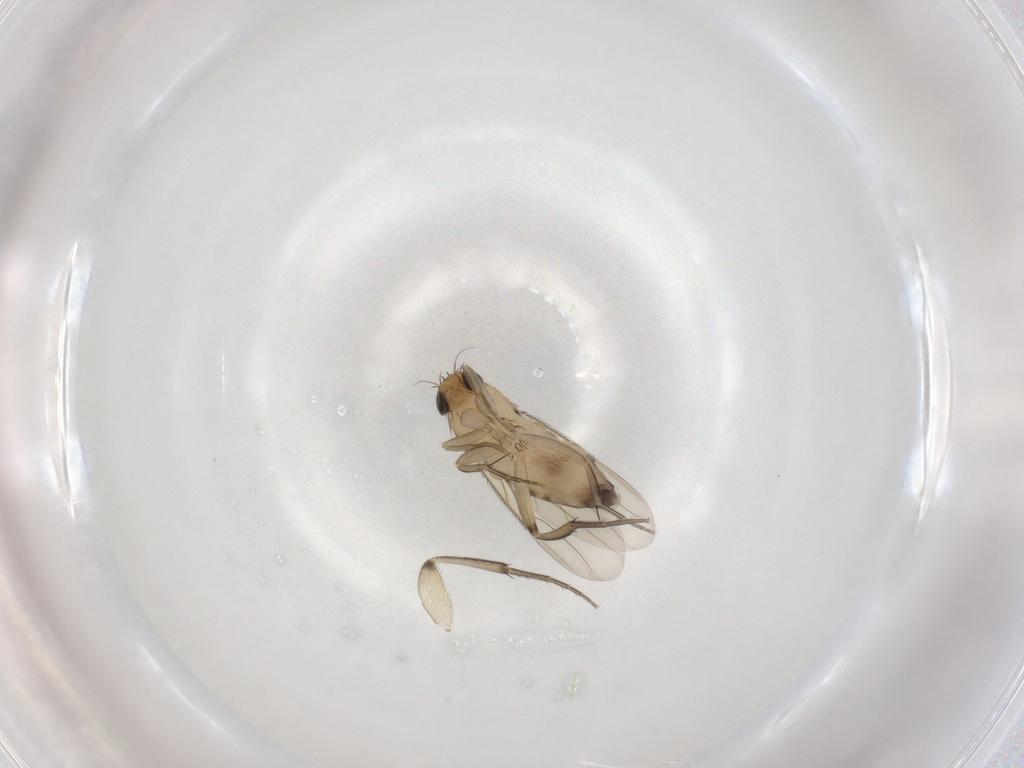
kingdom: Animalia
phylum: Arthropoda
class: Insecta
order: Diptera
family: Phoridae
